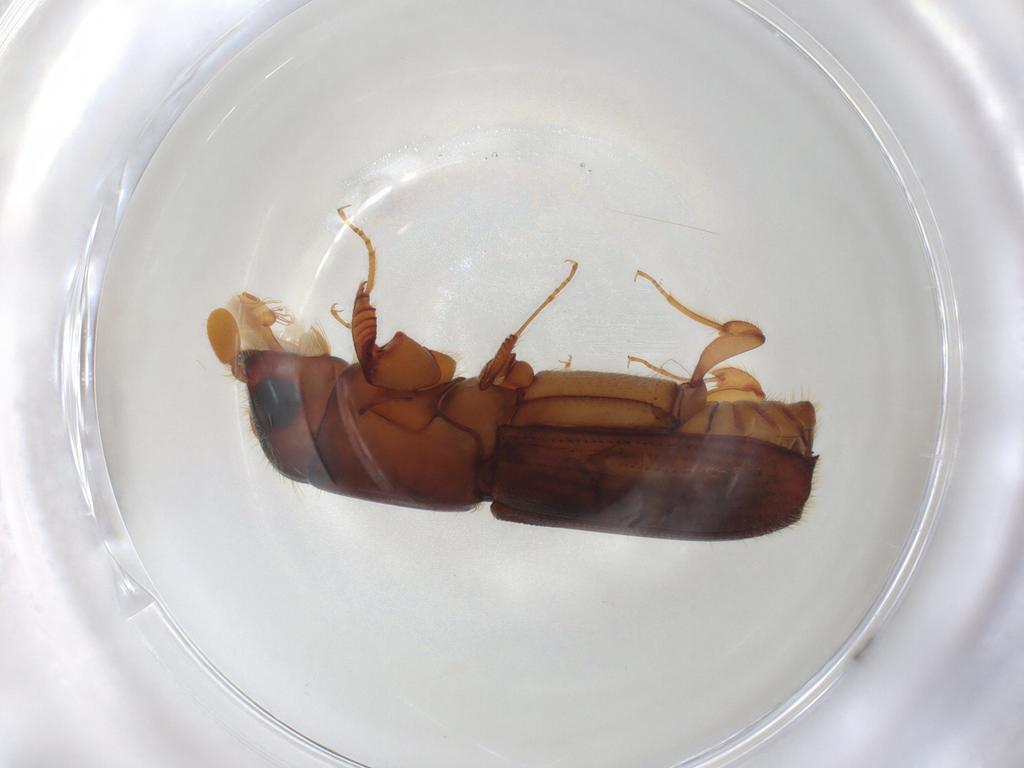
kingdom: Animalia
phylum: Arthropoda
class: Insecta
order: Coleoptera
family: Curculionidae
